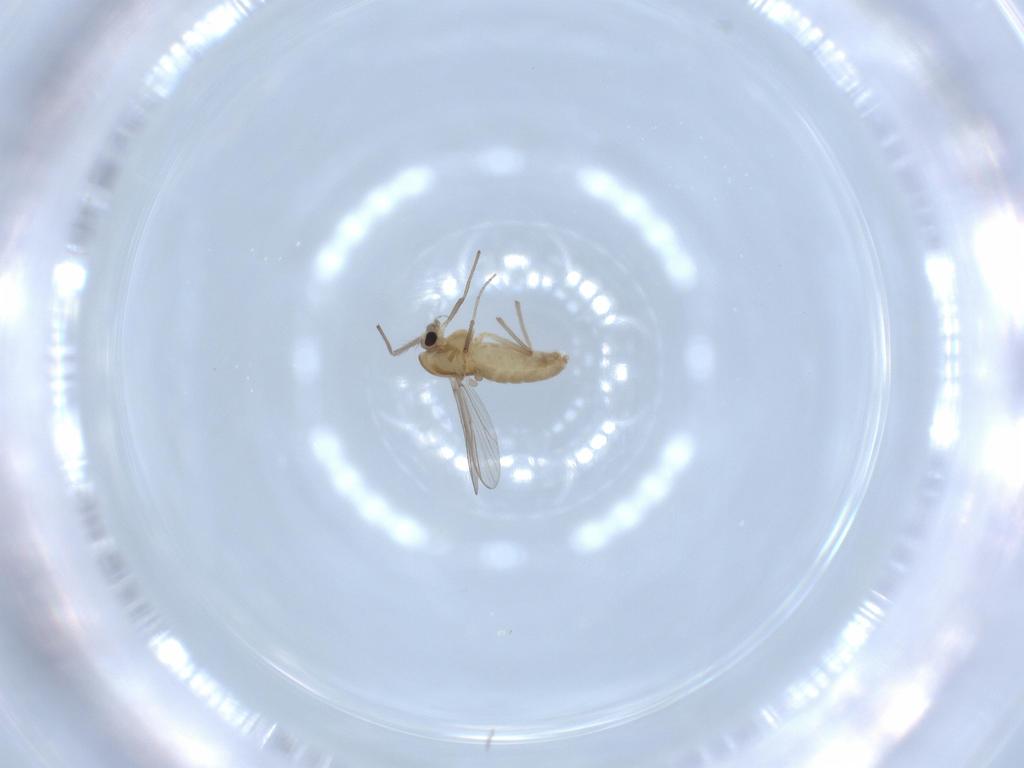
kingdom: Animalia
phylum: Arthropoda
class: Insecta
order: Diptera
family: Chironomidae
